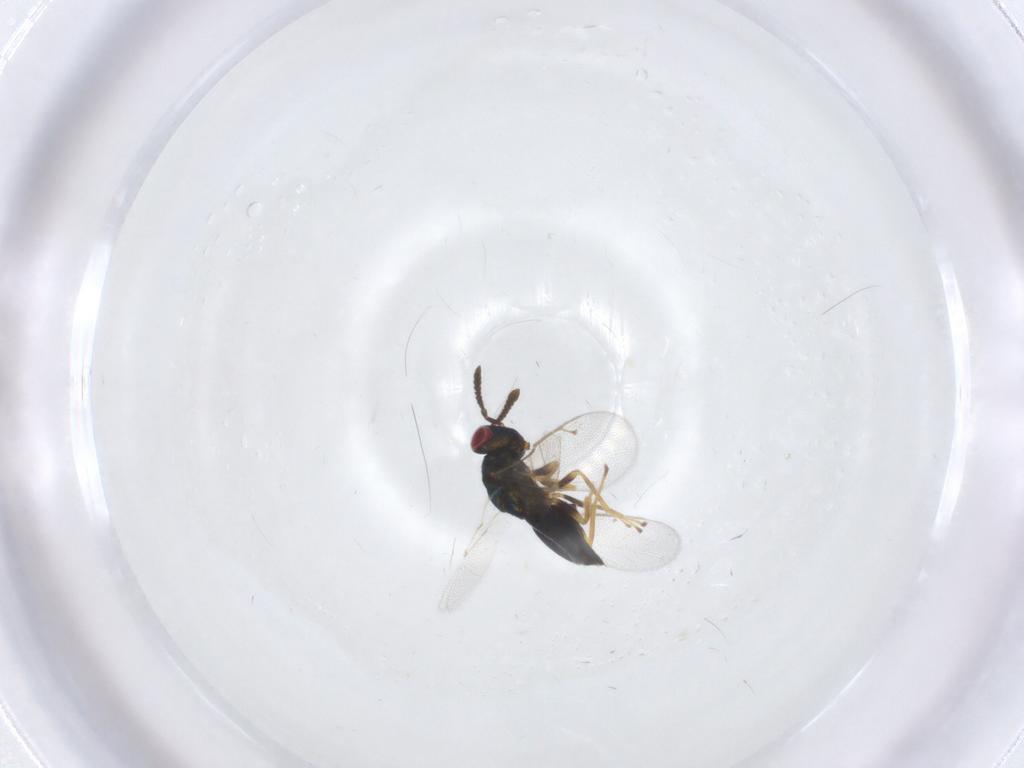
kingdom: Animalia
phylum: Arthropoda
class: Insecta
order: Hymenoptera
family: Pteromalidae
